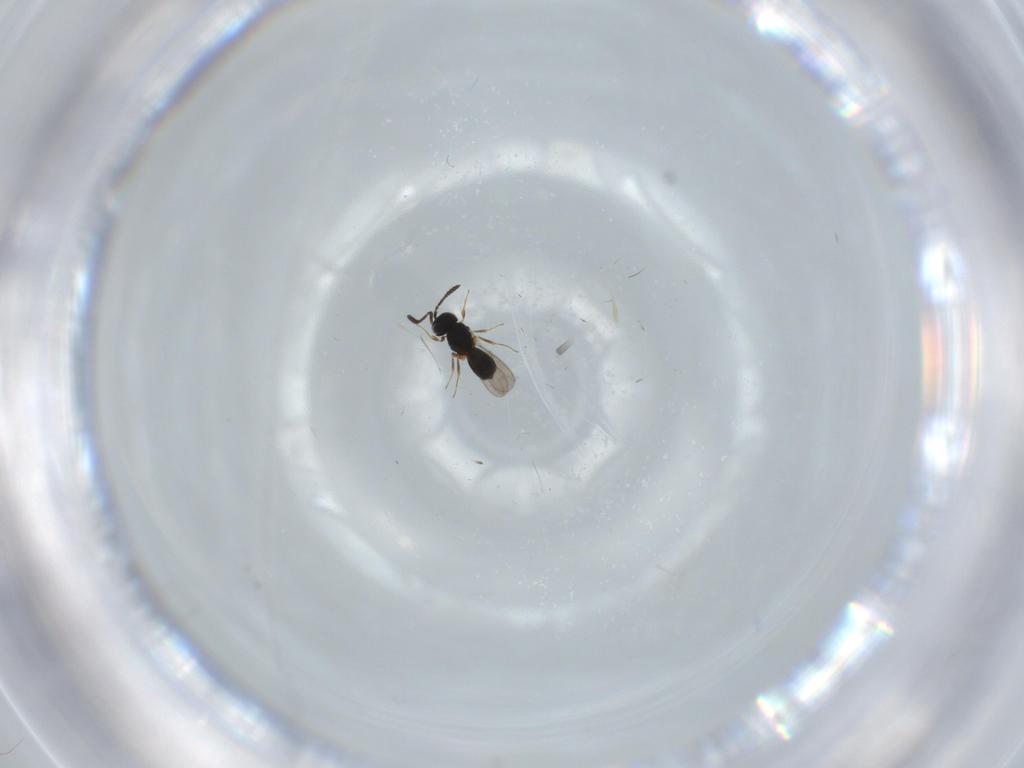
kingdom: Animalia
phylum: Arthropoda
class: Insecta
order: Hymenoptera
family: Scelionidae
